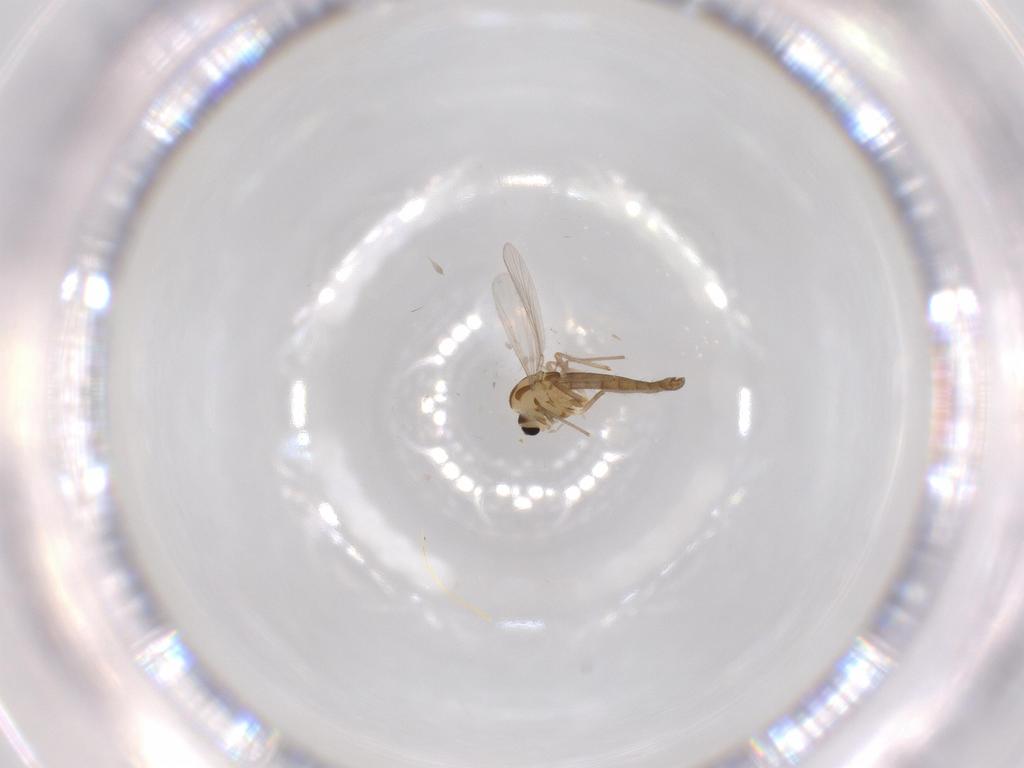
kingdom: Animalia
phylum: Arthropoda
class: Insecta
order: Diptera
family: Chironomidae
